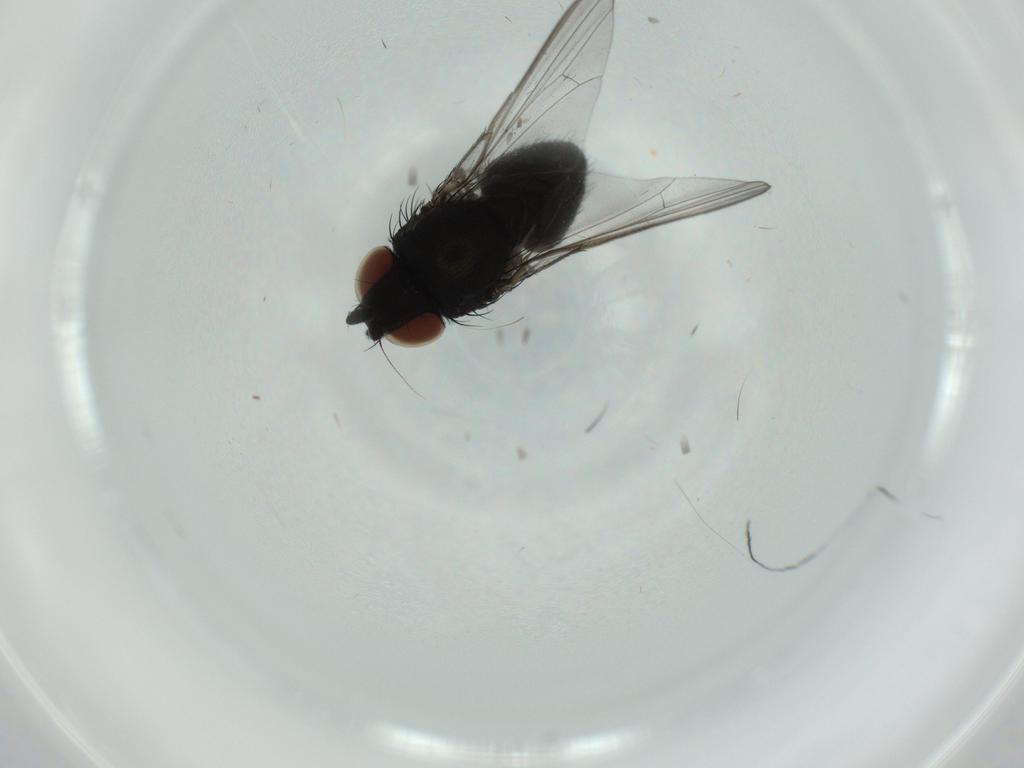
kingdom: Animalia
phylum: Arthropoda
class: Insecta
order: Diptera
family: Milichiidae
